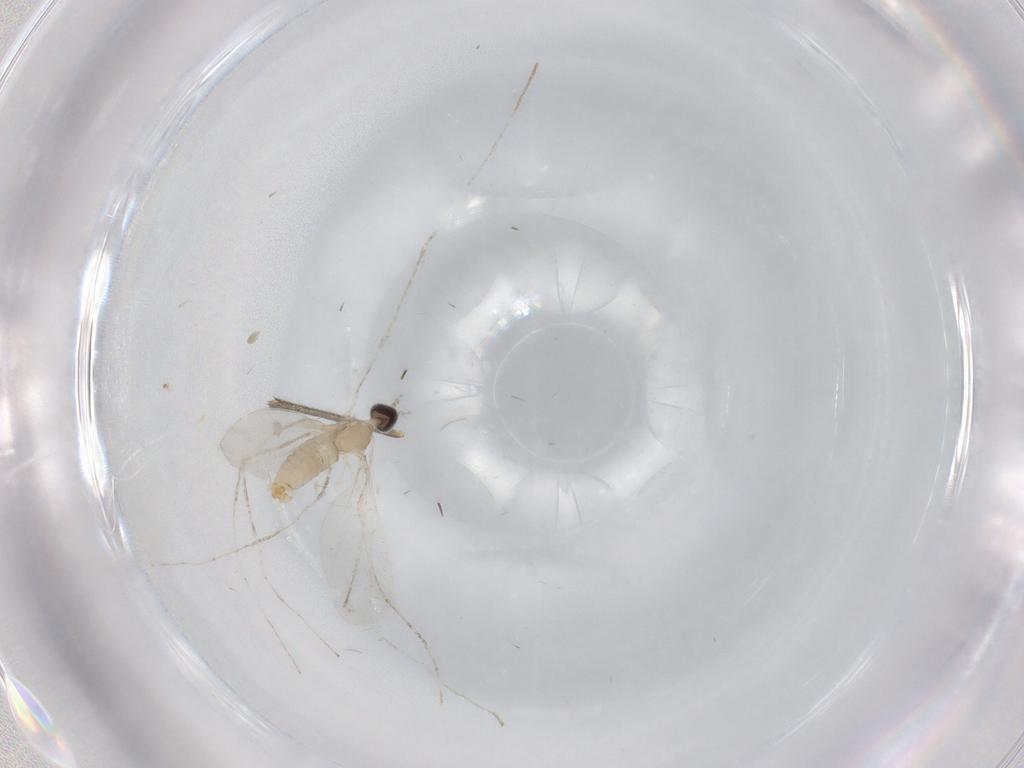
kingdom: Animalia
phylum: Arthropoda
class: Insecta
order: Diptera
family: Cecidomyiidae
